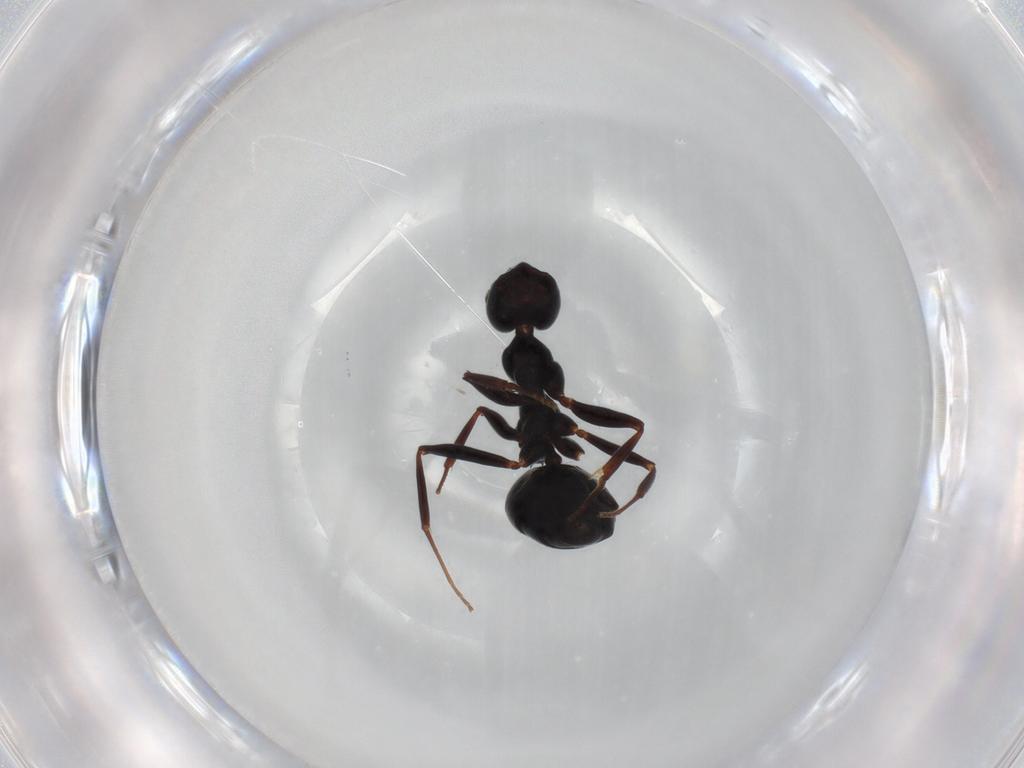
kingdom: Animalia
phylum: Arthropoda
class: Insecta
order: Hymenoptera
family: Formicidae
